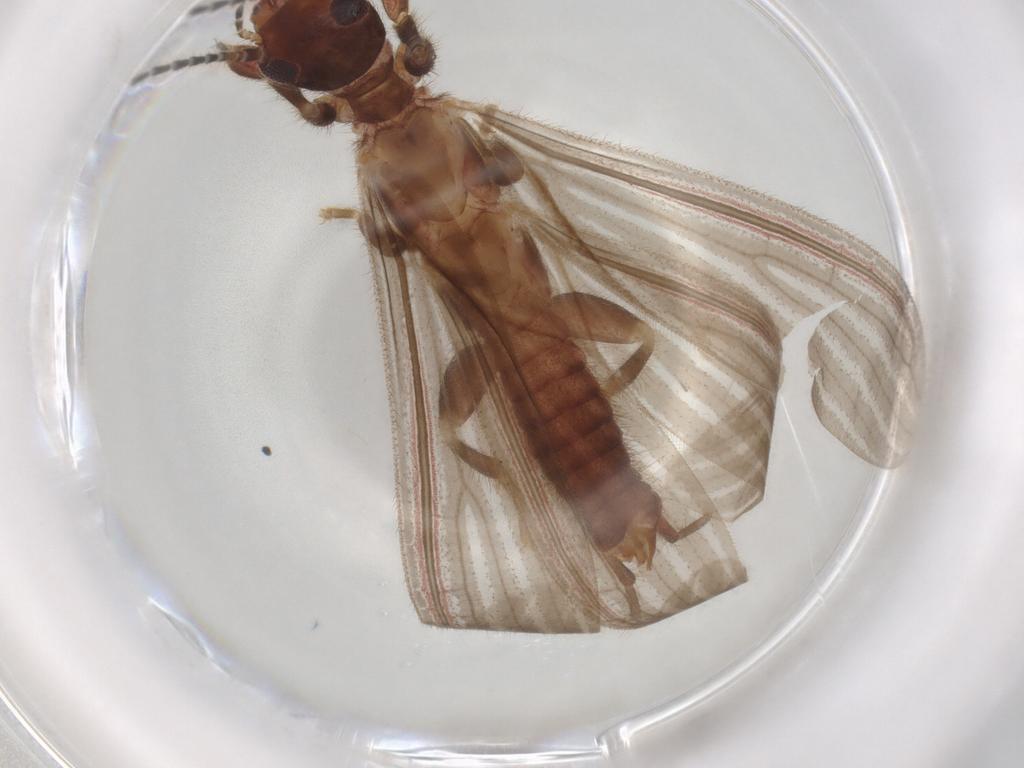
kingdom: Animalia
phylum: Arthropoda
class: Insecta
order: Embioptera
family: Oligotomidae
